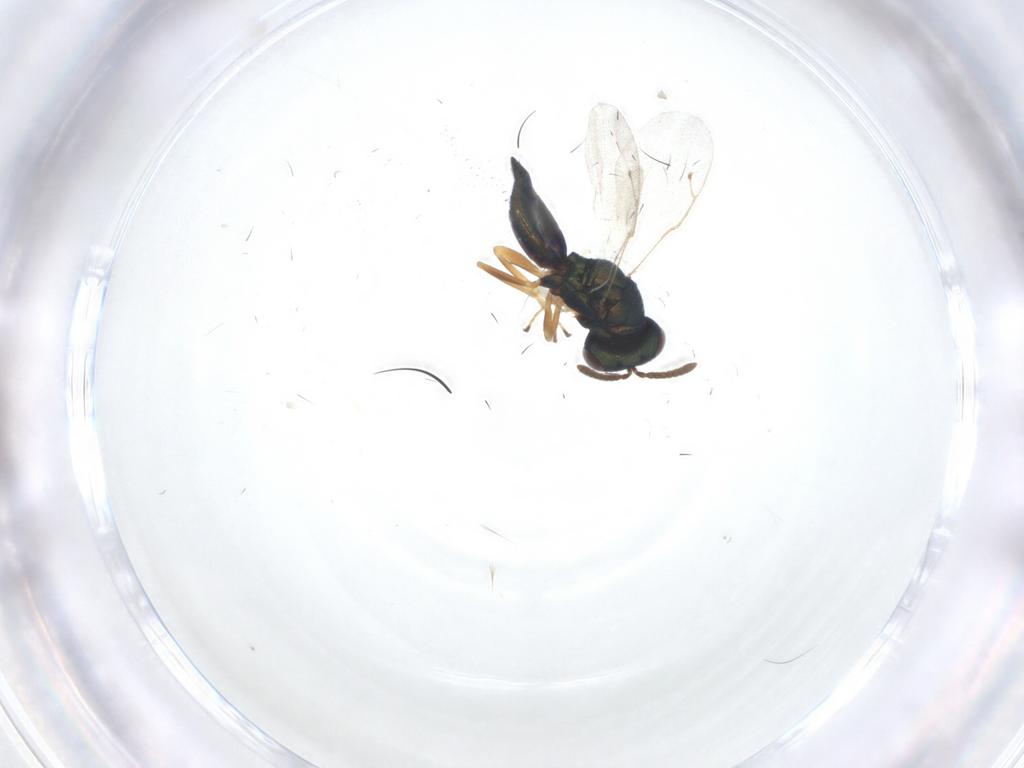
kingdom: Animalia
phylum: Arthropoda
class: Insecta
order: Hymenoptera
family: Pteromalidae
